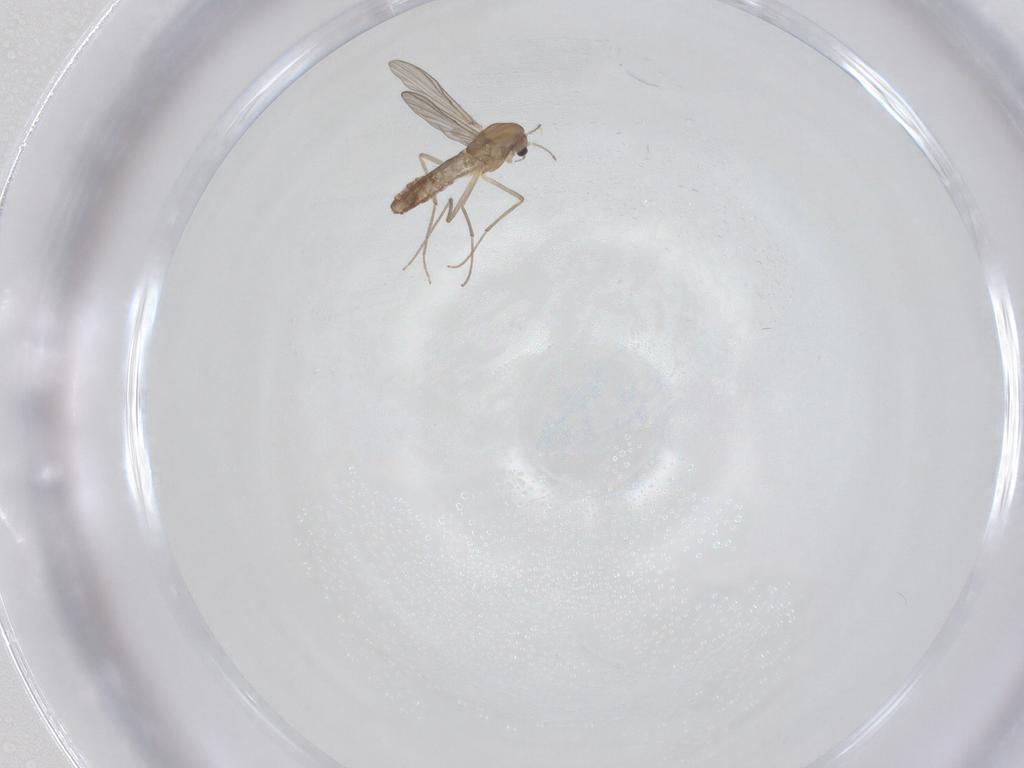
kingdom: Animalia
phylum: Arthropoda
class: Insecta
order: Diptera
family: Chironomidae
